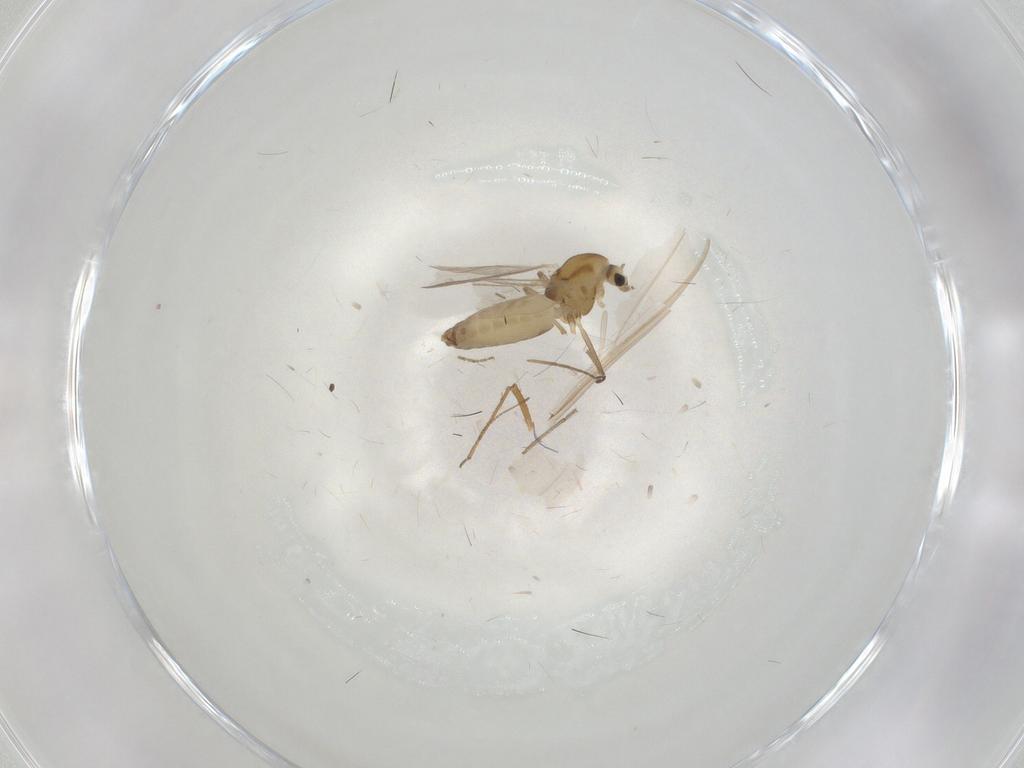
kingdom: Animalia
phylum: Arthropoda
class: Insecta
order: Diptera
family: Chironomidae
